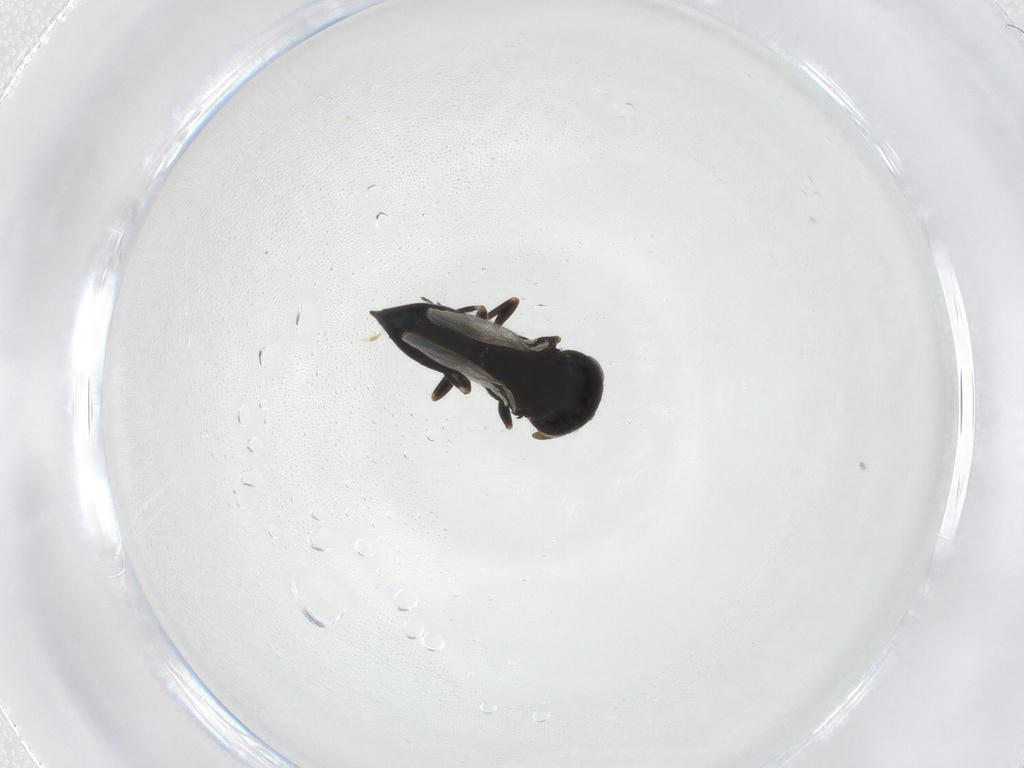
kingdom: Animalia
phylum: Arthropoda
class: Insecta
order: Hymenoptera
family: Pteromalidae
